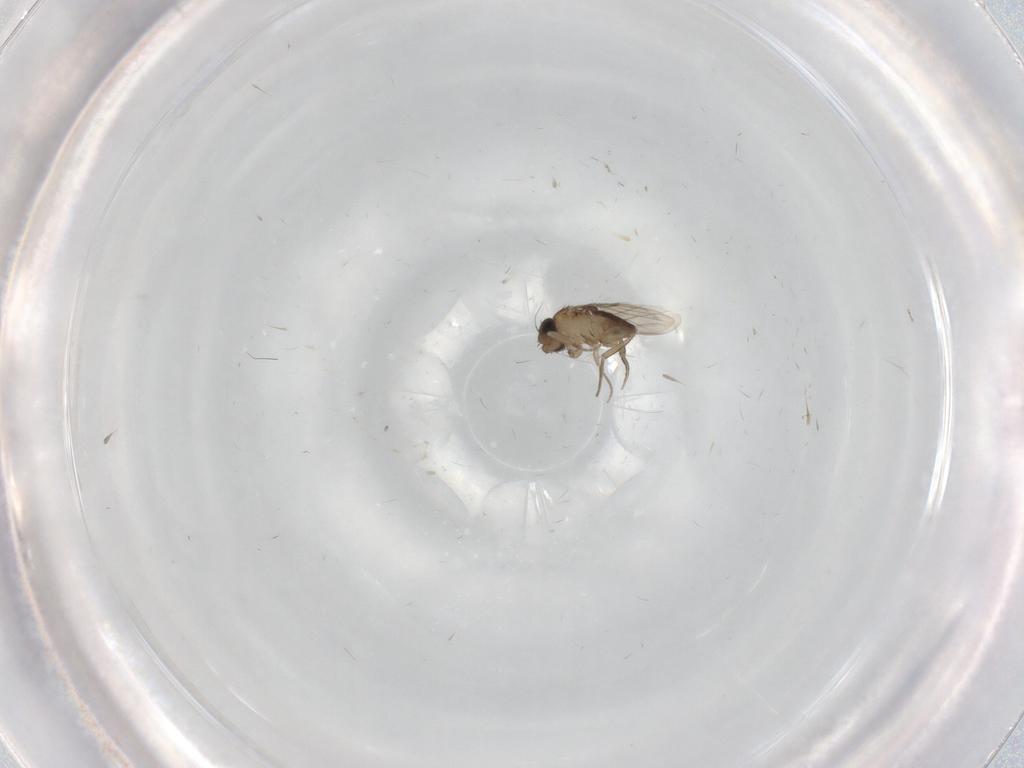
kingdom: Animalia
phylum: Arthropoda
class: Insecta
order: Diptera
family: Phoridae
